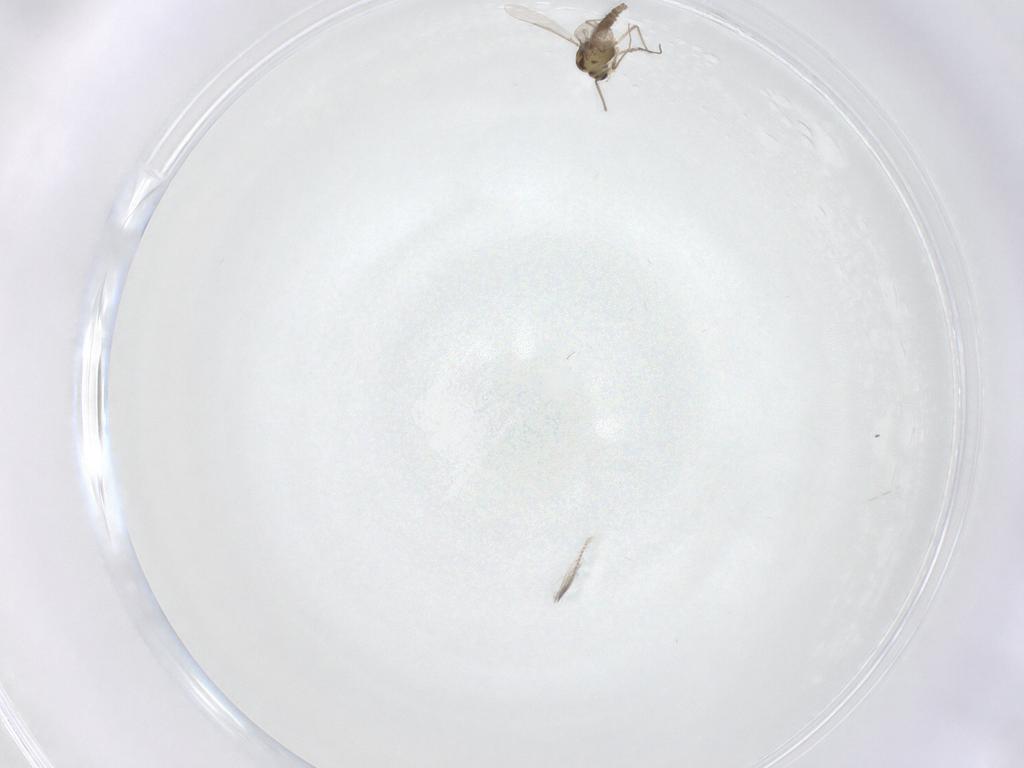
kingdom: Animalia
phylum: Arthropoda
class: Insecta
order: Diptera
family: Chironomidae
